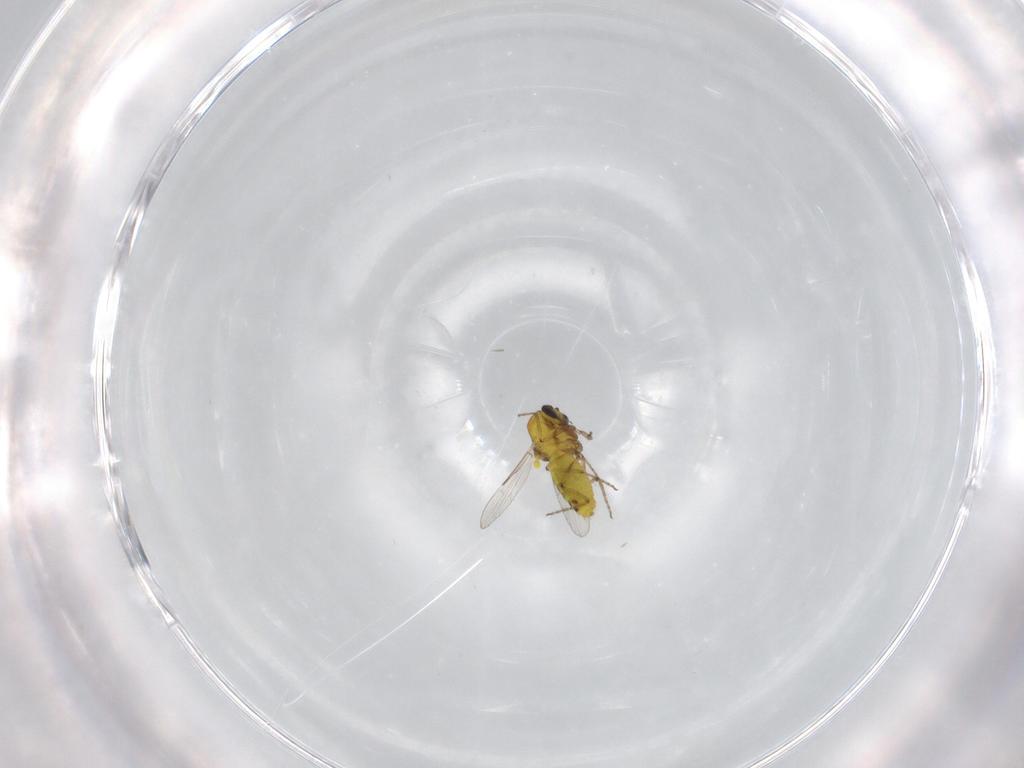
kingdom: Animalia
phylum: Arthropoda
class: Insecta
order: Diptera
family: Ceratopogonidae
